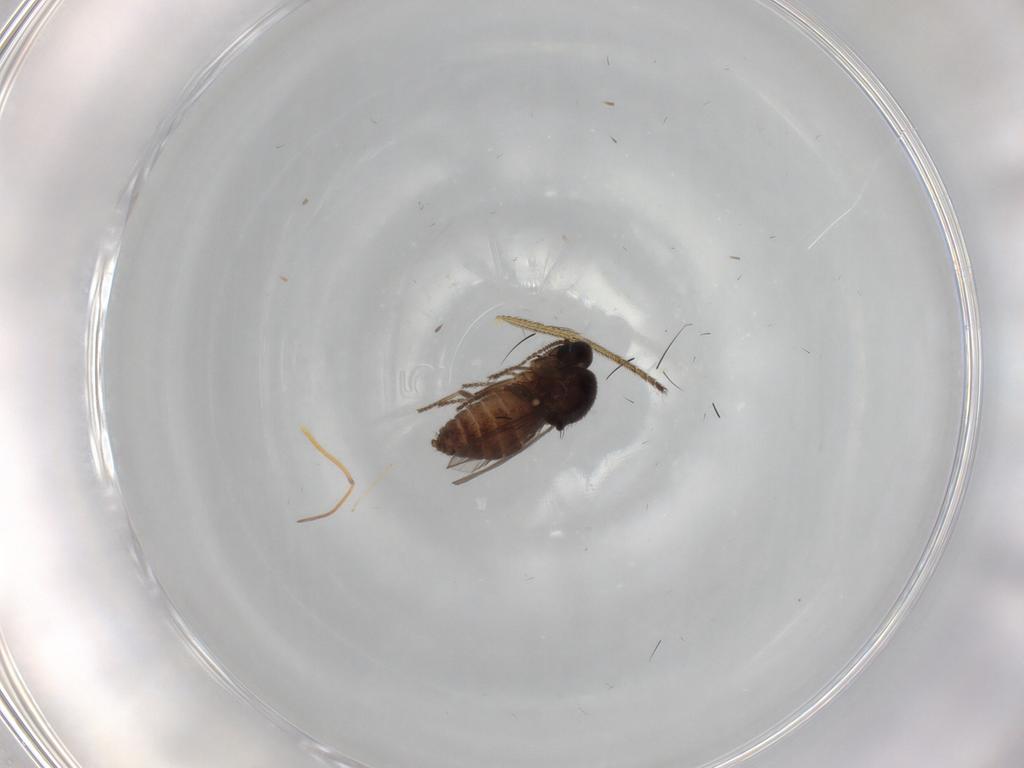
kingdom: Animalia
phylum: Arthropoda
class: Insecta
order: Diptera
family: Ceratopogonidae
